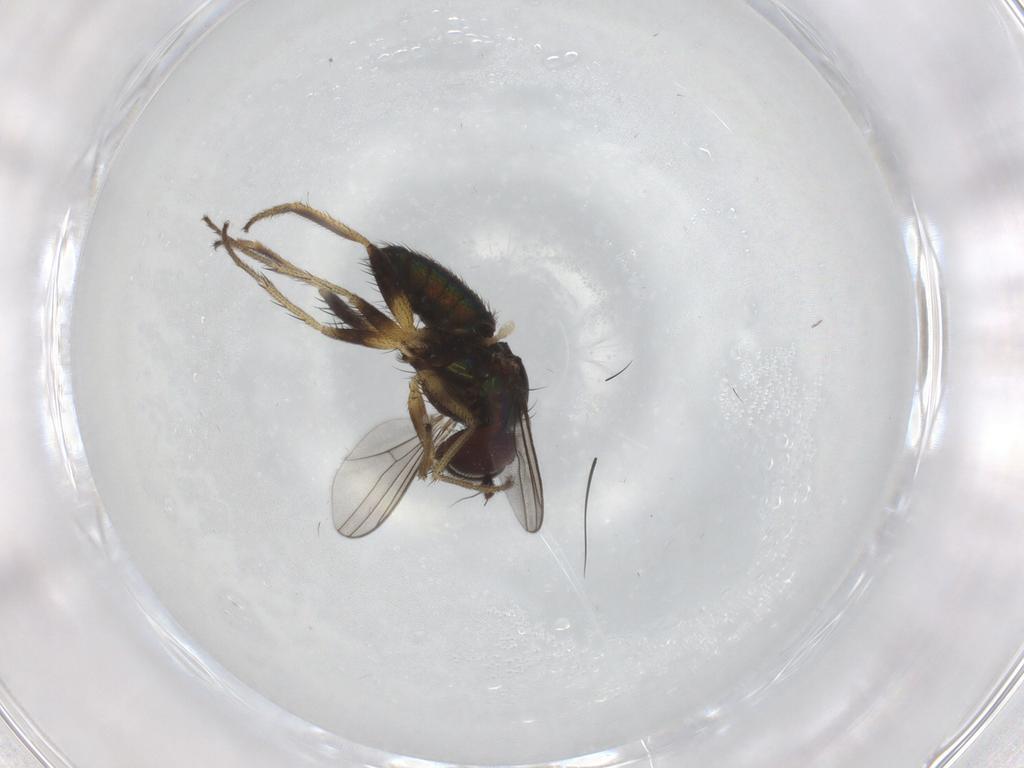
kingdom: Animalia
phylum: Arthropoda
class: Insecta
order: Diptera
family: Dolichopodidae
